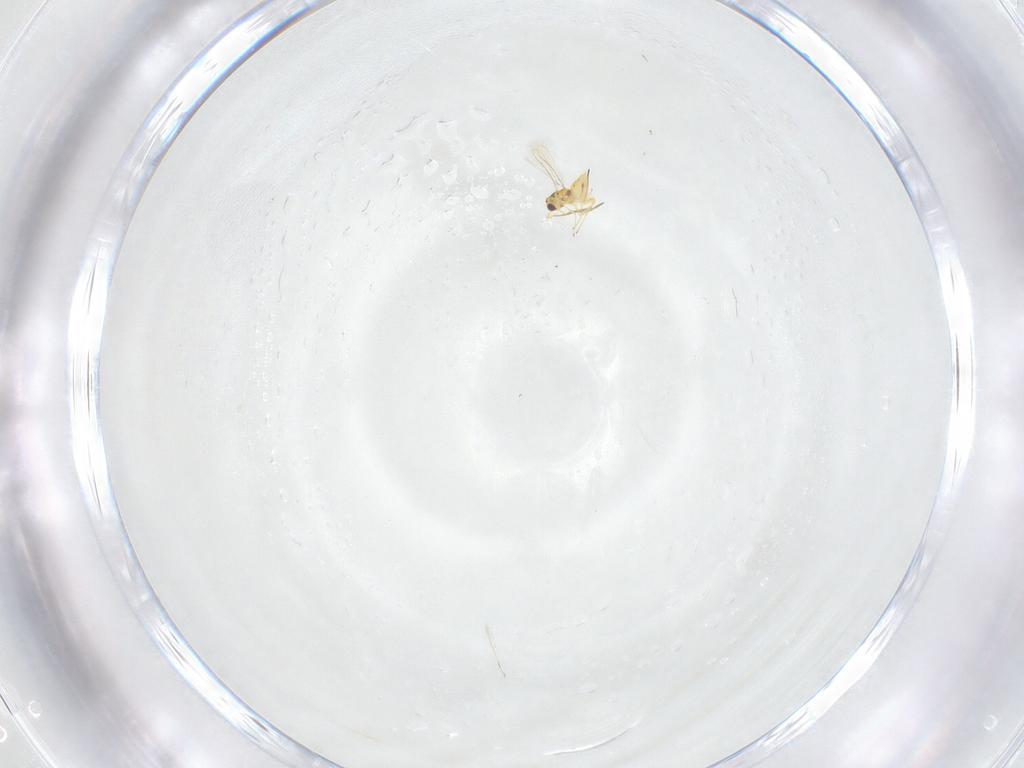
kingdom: Animalia
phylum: Arthropoda
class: Insecta
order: Hymenoptera
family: Mymaridae
